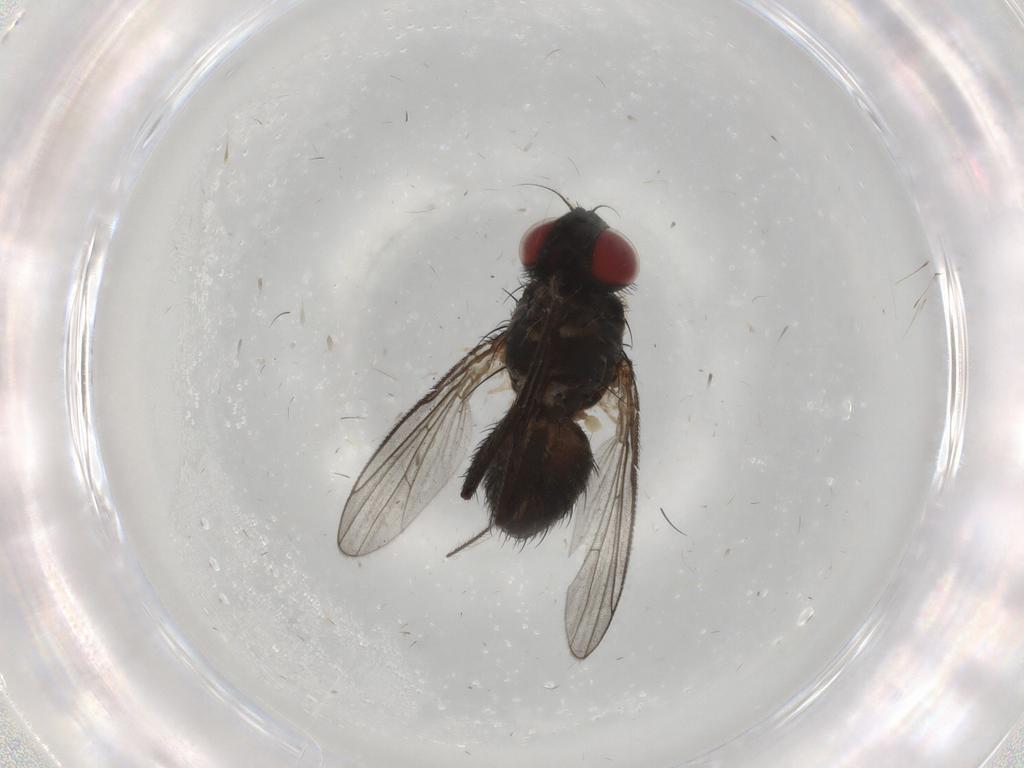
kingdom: Animalia
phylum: Arthropoda
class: Insecta
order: Diptera
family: Muscidae
